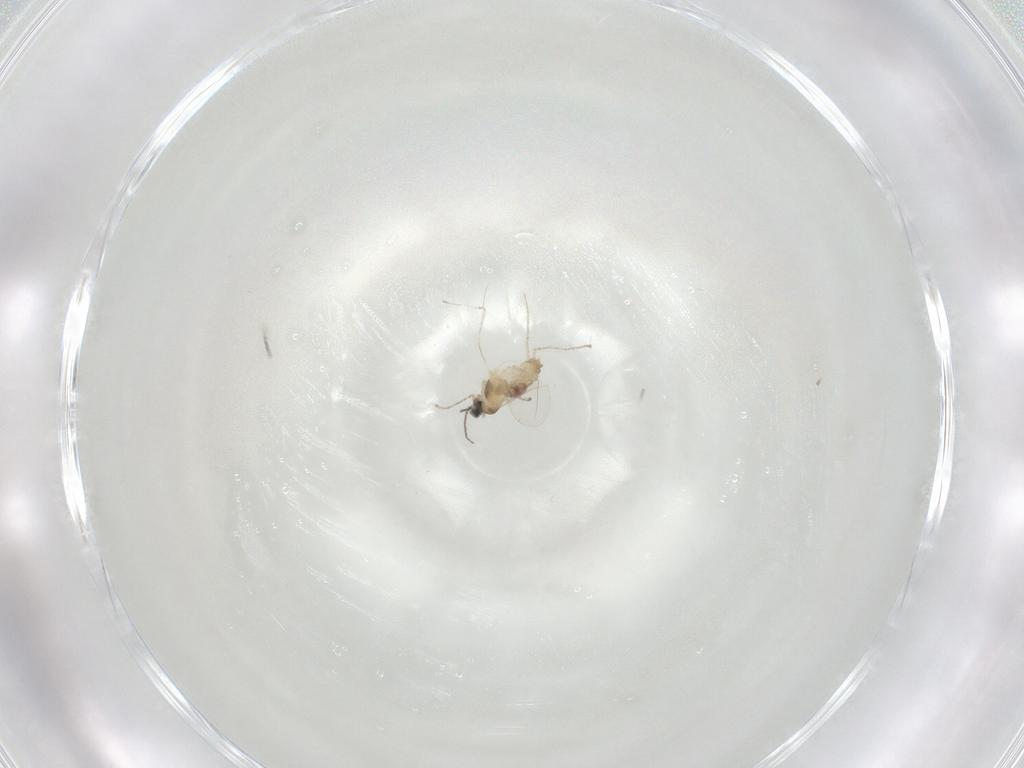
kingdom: Animalia
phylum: Arthropoda
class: Insecta
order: Diptera
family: Cecidomyiidae
